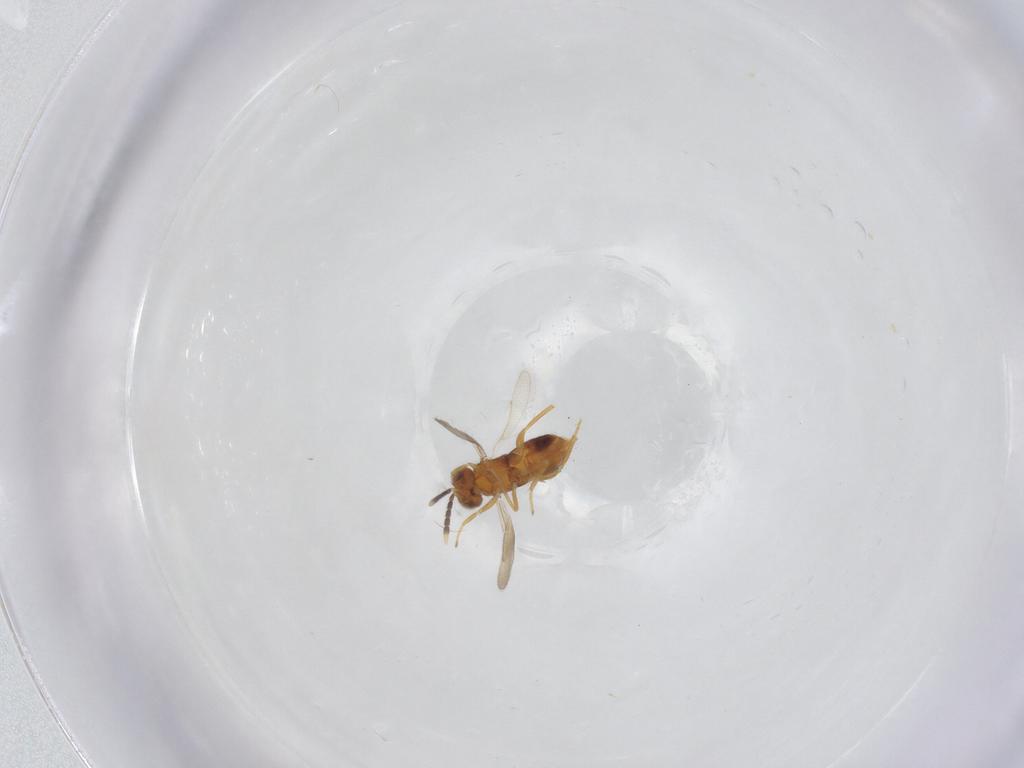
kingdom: Animalia
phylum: Arthropoda
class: Insecta
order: Hymenoptera
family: Aphelinidae
